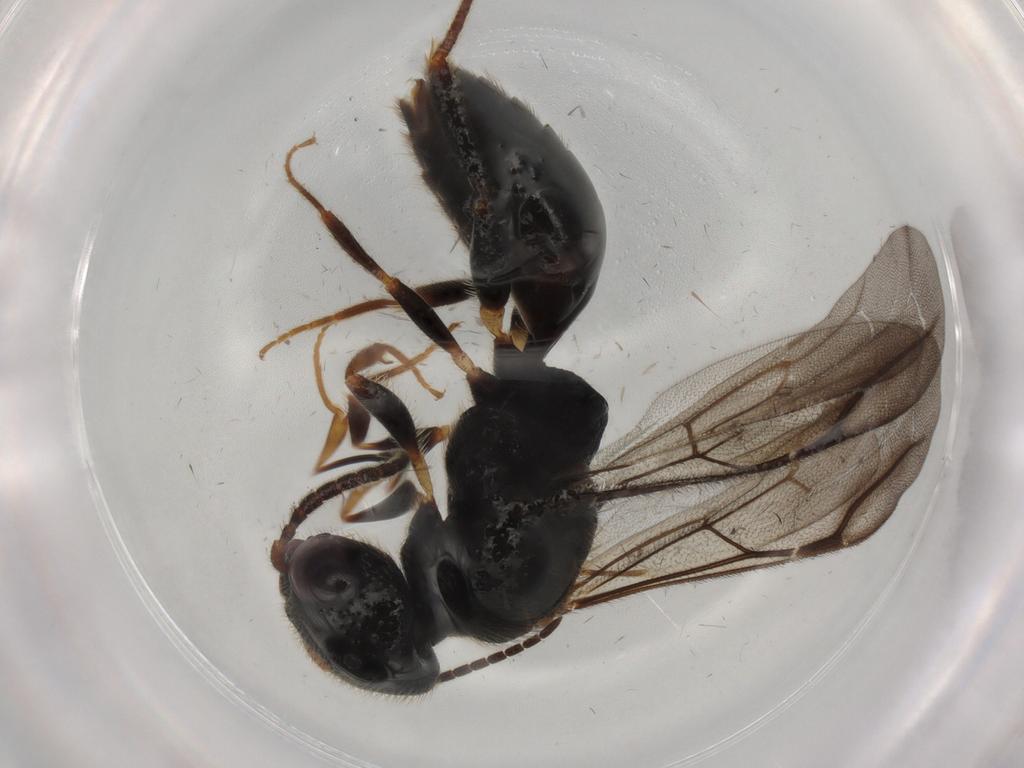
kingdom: Animalia
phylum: Arthropoda
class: Insecta
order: Hymenoptera
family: Bethylidae
